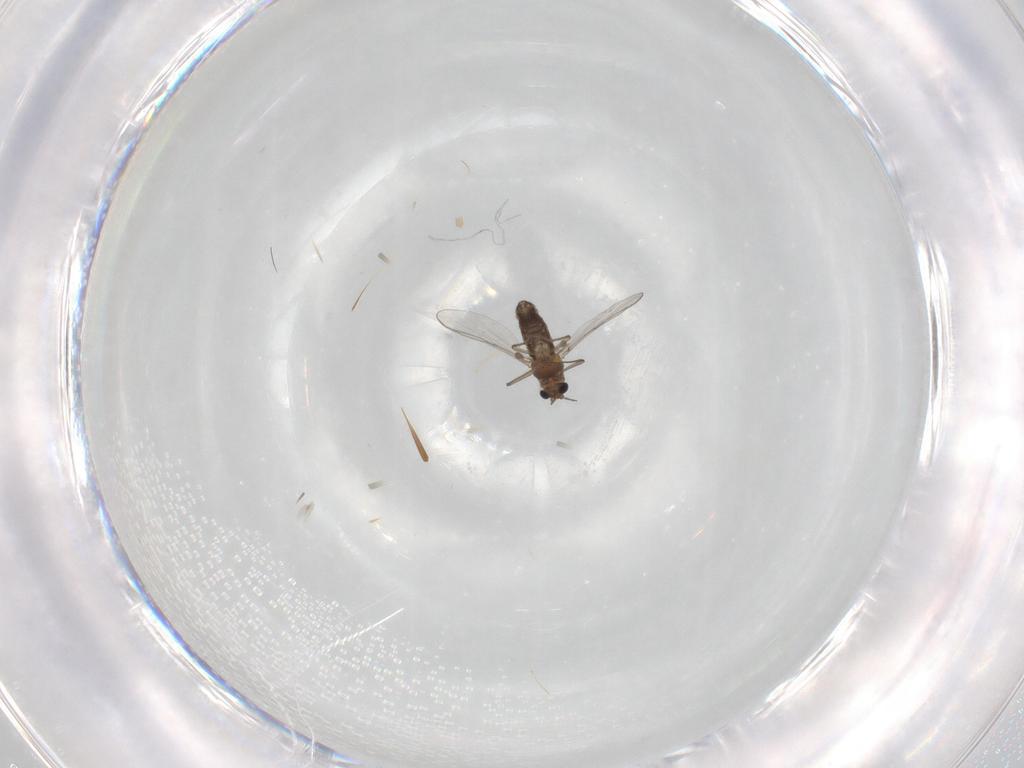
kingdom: Animalia
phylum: Arthropoda
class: Insecta
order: Diptera
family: Chironomidae
